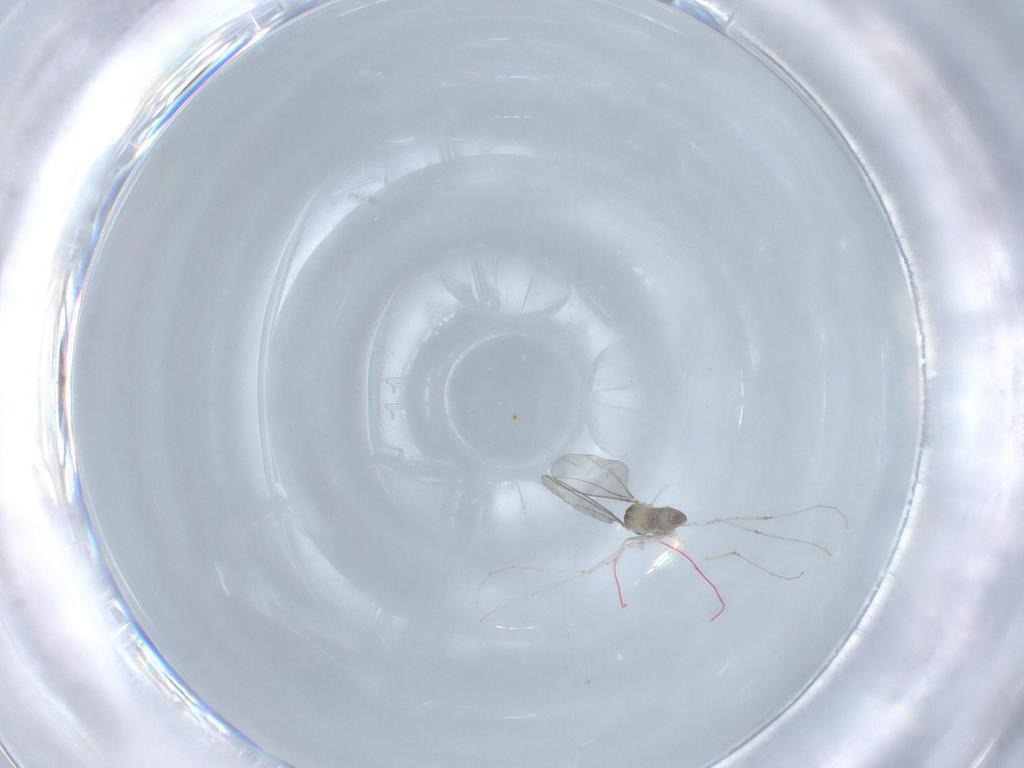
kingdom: Animalia
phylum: Arthropoda
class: Insecta
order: Diptera
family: Cecidomyiidae
